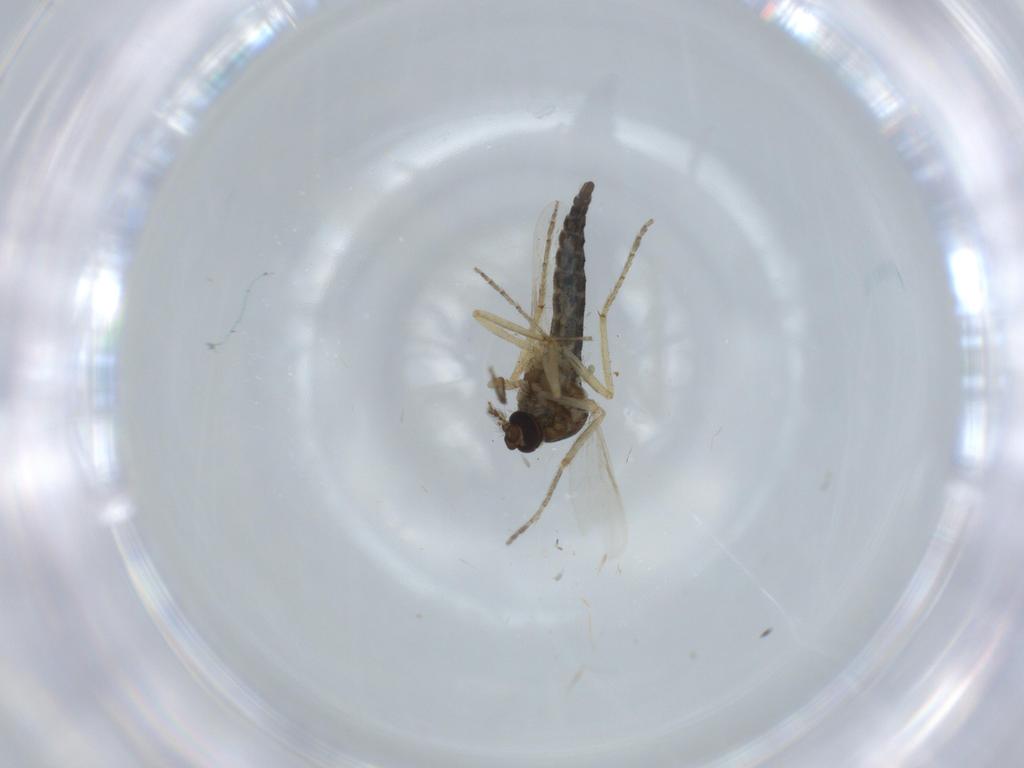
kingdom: Animalia
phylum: Arthropoda
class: Insecta
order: Diptera
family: Ceratopogonidae
